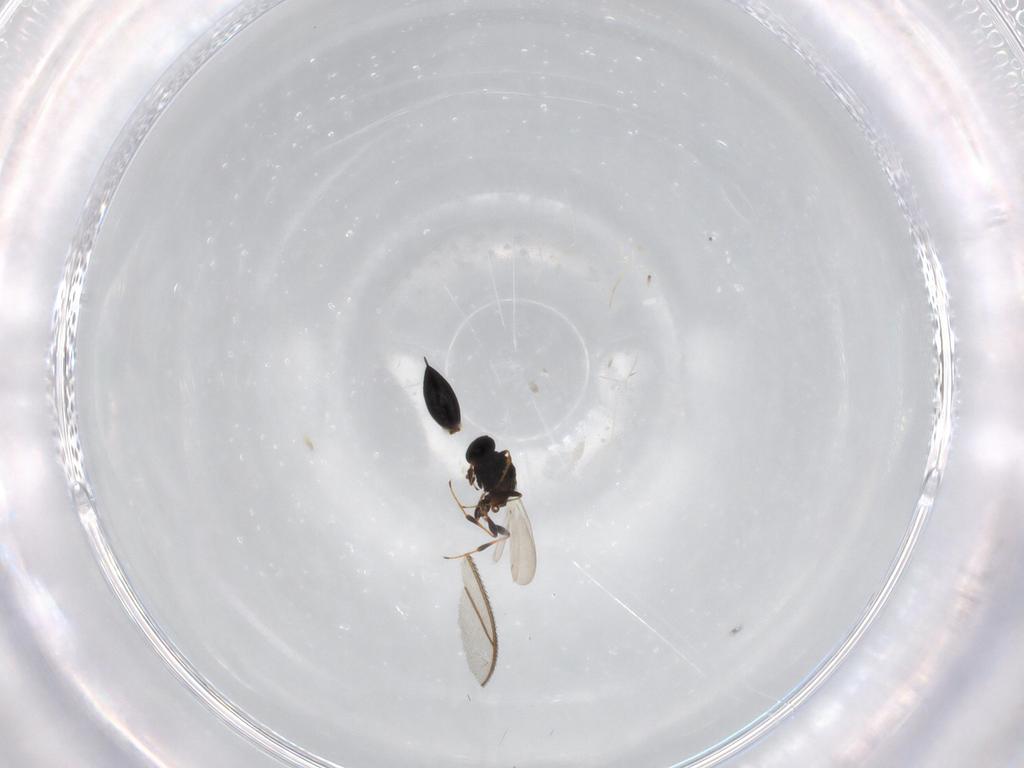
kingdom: Animalia
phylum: Arthropoda
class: Insecta
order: Hymenoptera
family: Platygastridae
